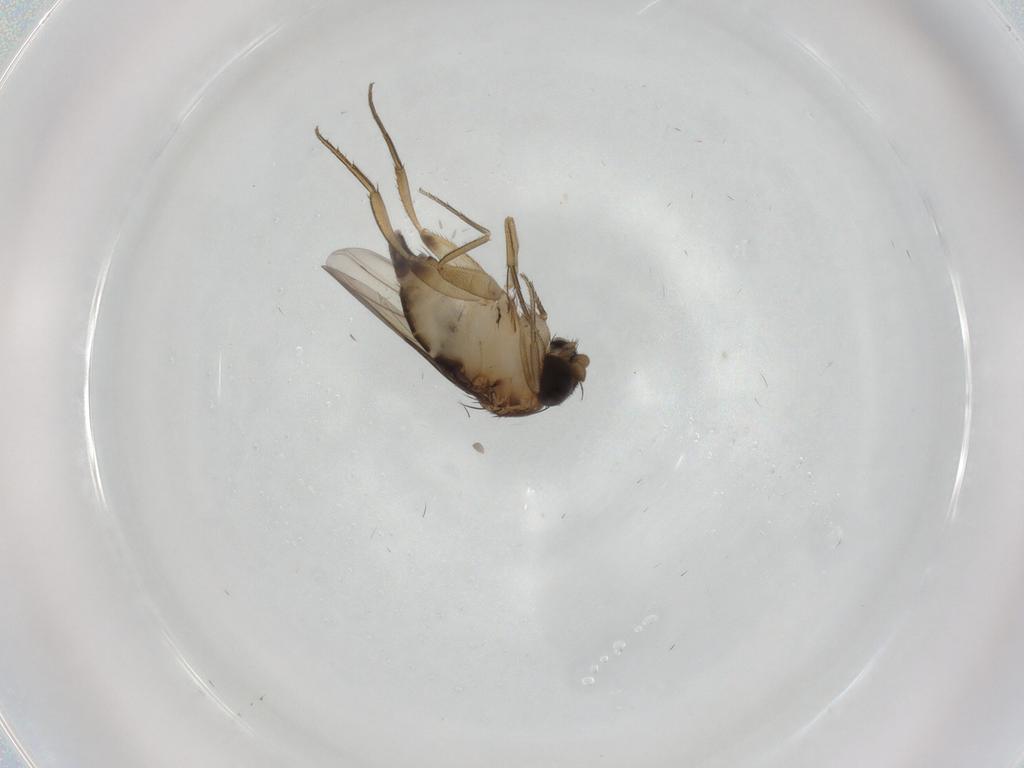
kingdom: Animalia
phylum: Arthropoda
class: Insecta
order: Diptera
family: Phoridae
